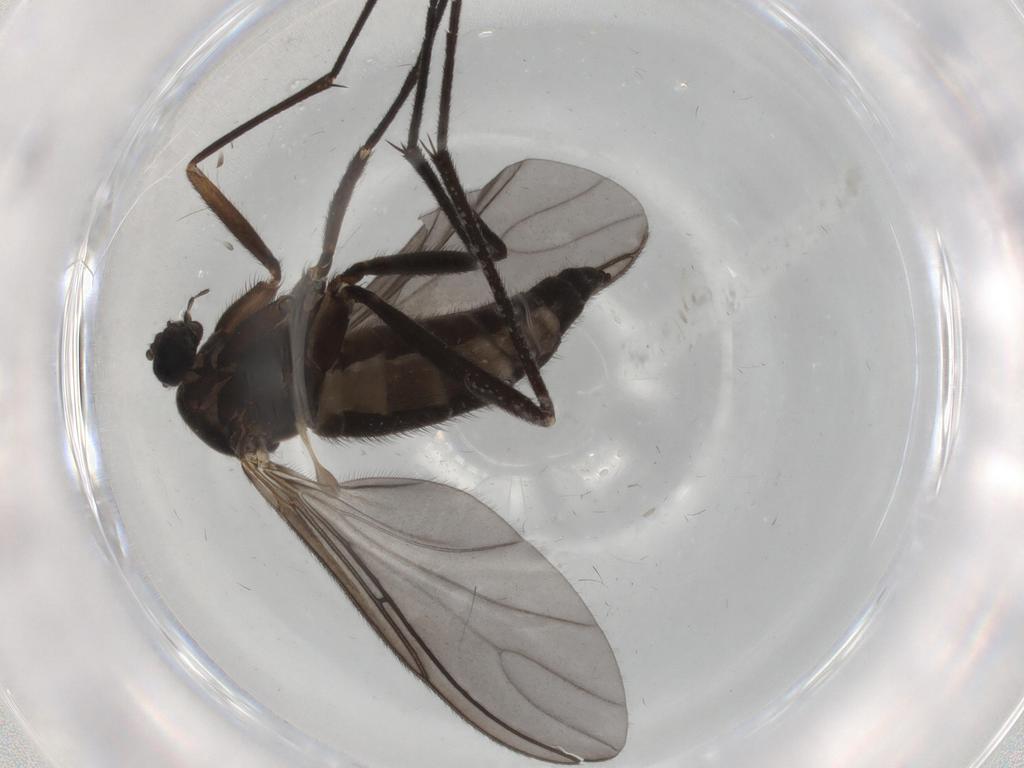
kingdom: Animalia
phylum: Arthropoda
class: Insecta
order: Diptera
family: Sciaridae
